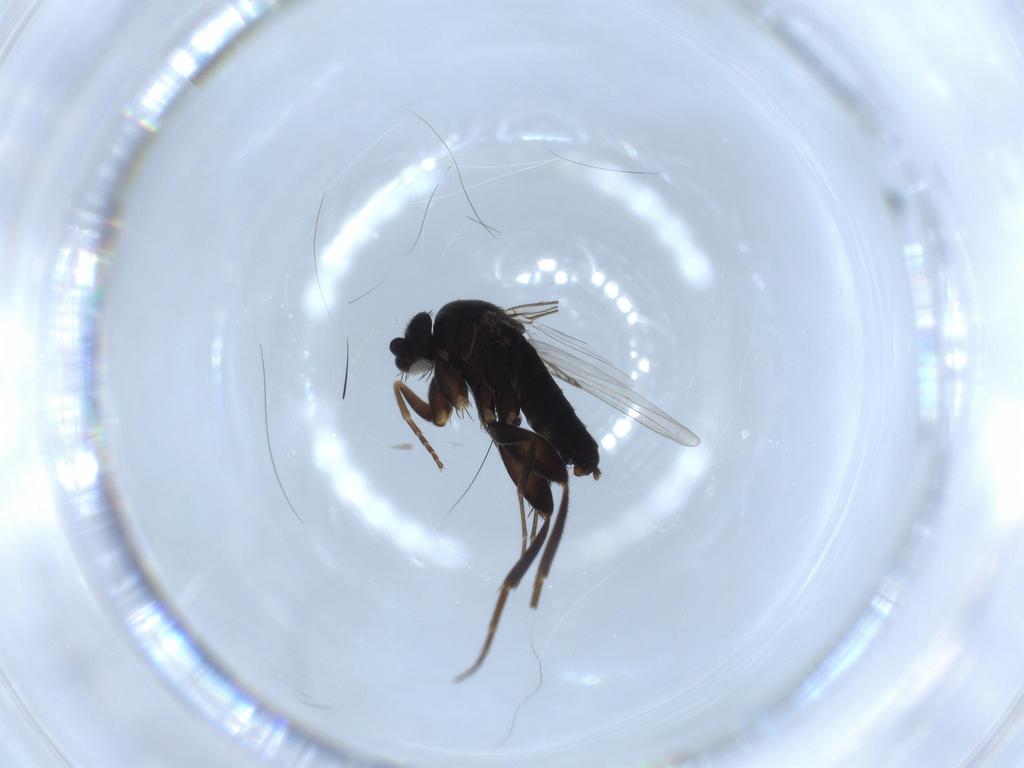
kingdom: Animalia
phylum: Arthropoda
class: Insecta
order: Diptera
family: Phoridae
